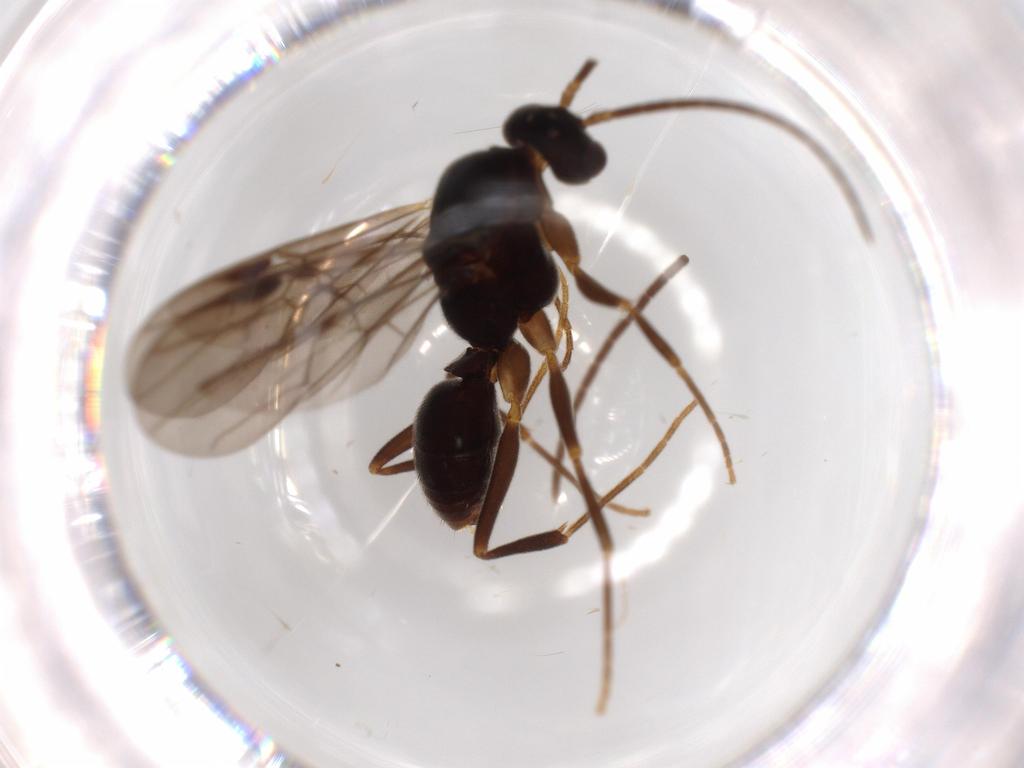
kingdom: Animalia
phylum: Arthropoda
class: Insecta
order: Hymenoptera
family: Formicidae
